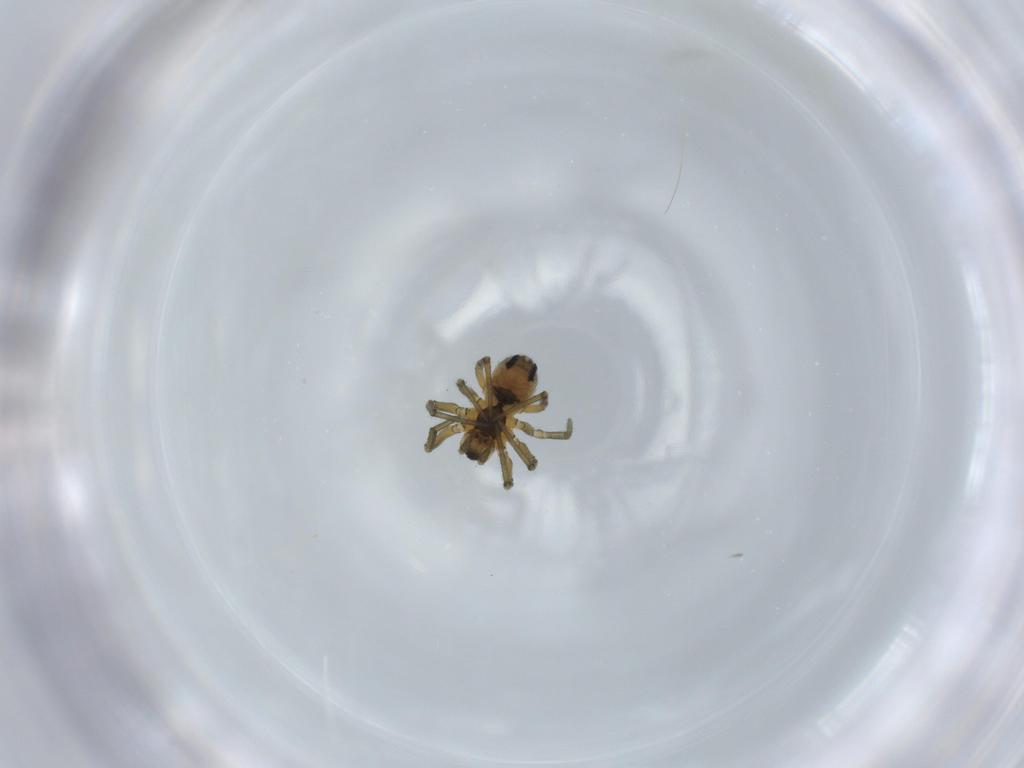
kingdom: Animalia
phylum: Arthropoda
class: Arachnida
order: Araneae
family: Linyphiidae
